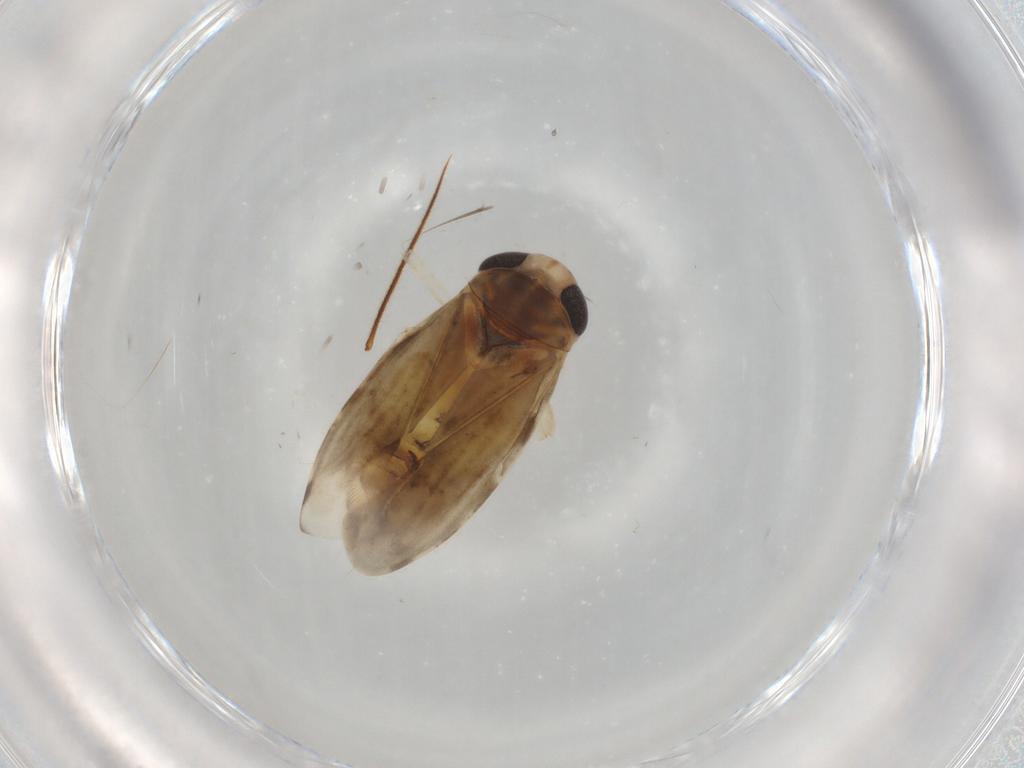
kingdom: Animalia
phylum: Arthropoda
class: Insecta
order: Hemiptera
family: Corixidae
